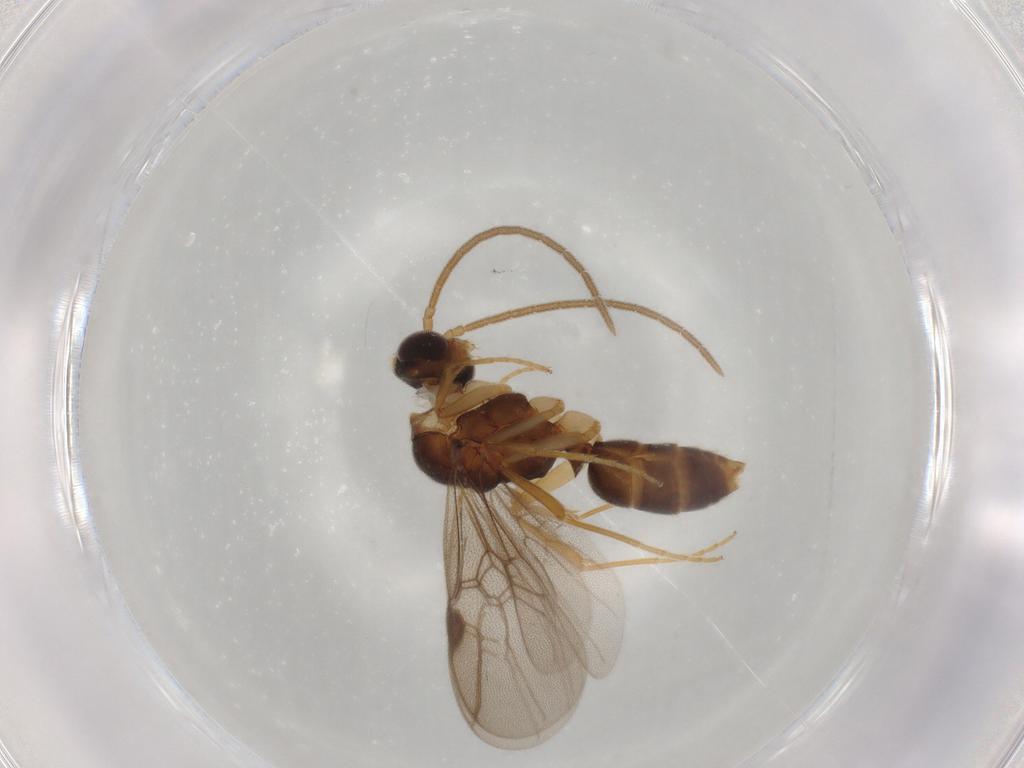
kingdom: Animalia
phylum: Arthropoda
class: Insecta
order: Hymenoptera
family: Formicidae
